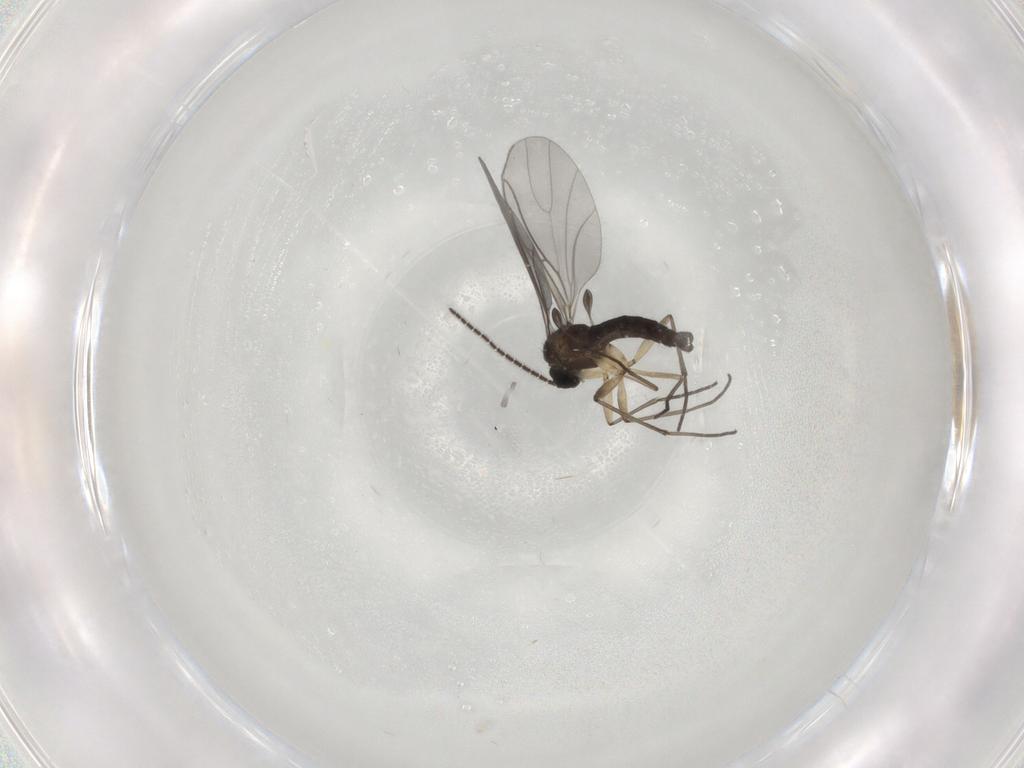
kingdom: Animalia
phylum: Arthropoda
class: Insecta
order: Diptera
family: Sciaridae
